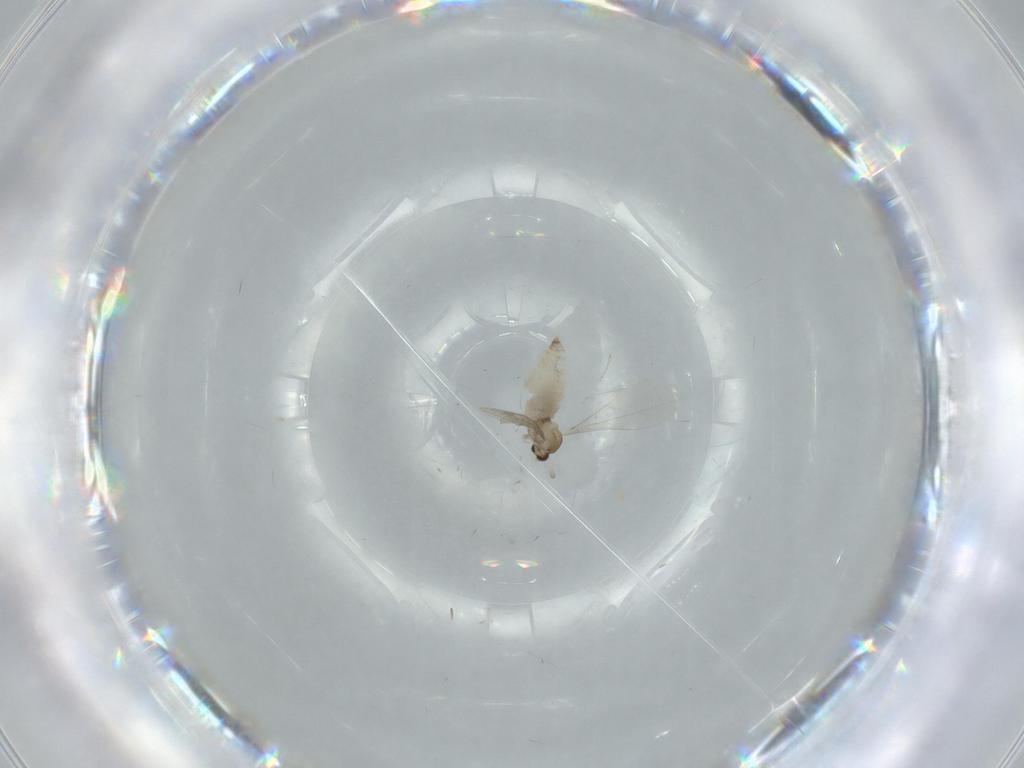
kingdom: Animalia
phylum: Arthropoda
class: Insecta
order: Diptera
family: Cecidomyiidae
